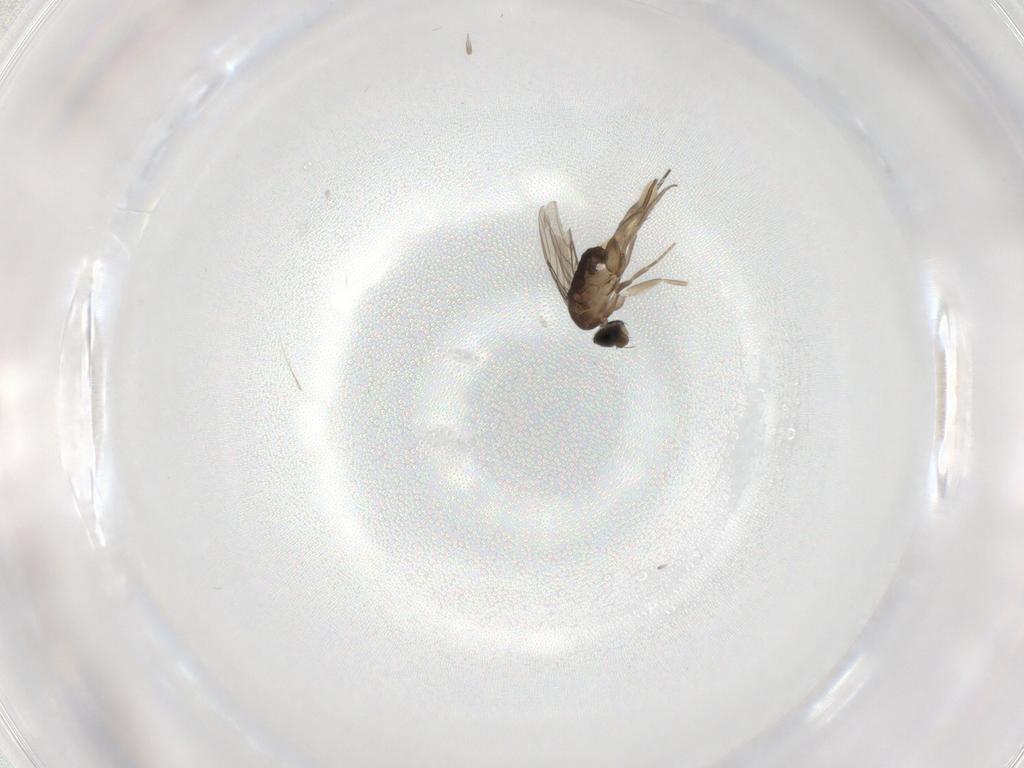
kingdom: Animalia
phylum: Arthropoda
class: Insecta
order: Diptera
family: Phoridae
